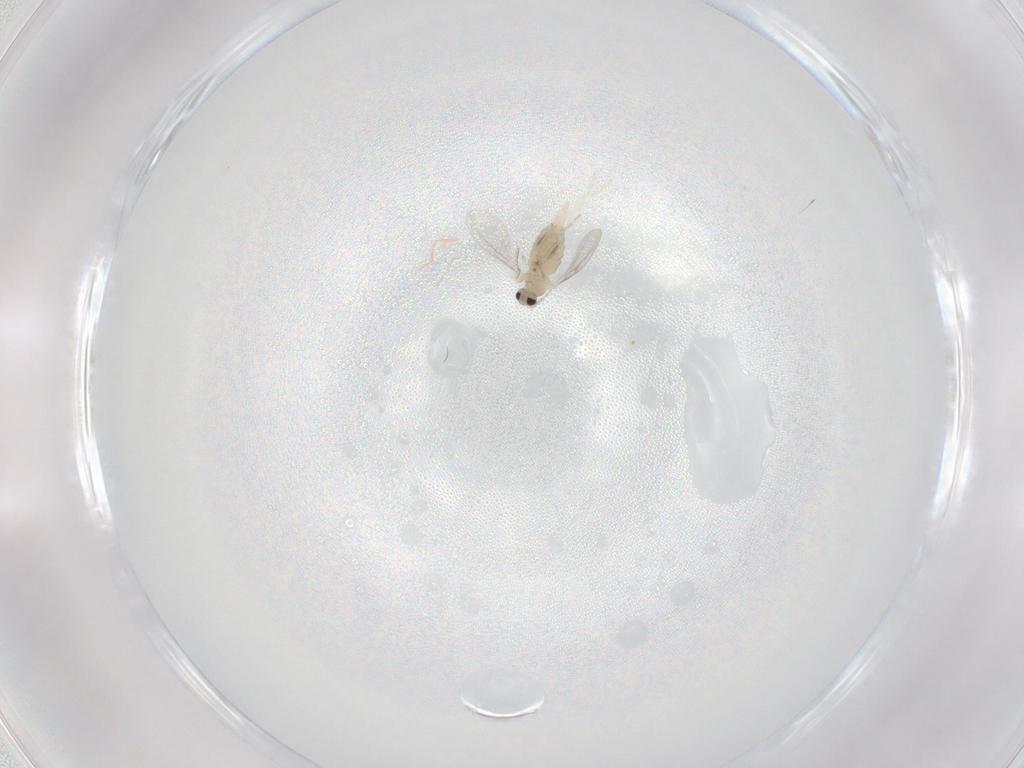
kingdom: Animalia
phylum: Arthropoda
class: Insecta
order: Diptera
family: Cecidomyiidae
